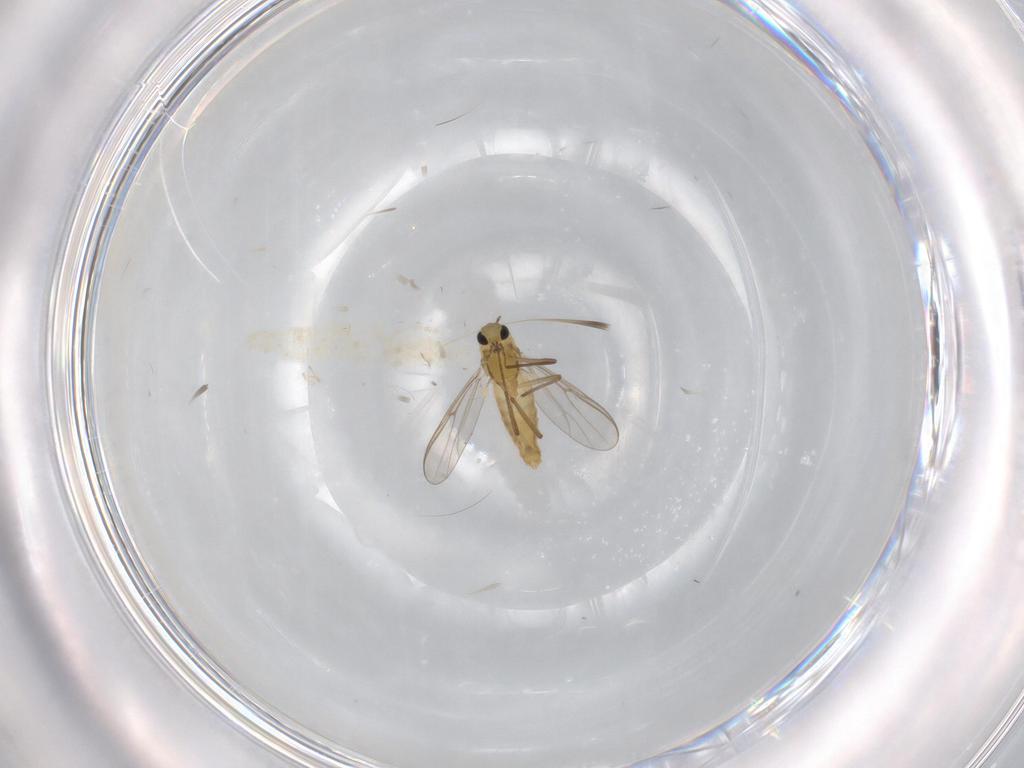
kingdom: Animalia
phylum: Arthropoda
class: Insecta
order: Diptera
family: Chironomidae
